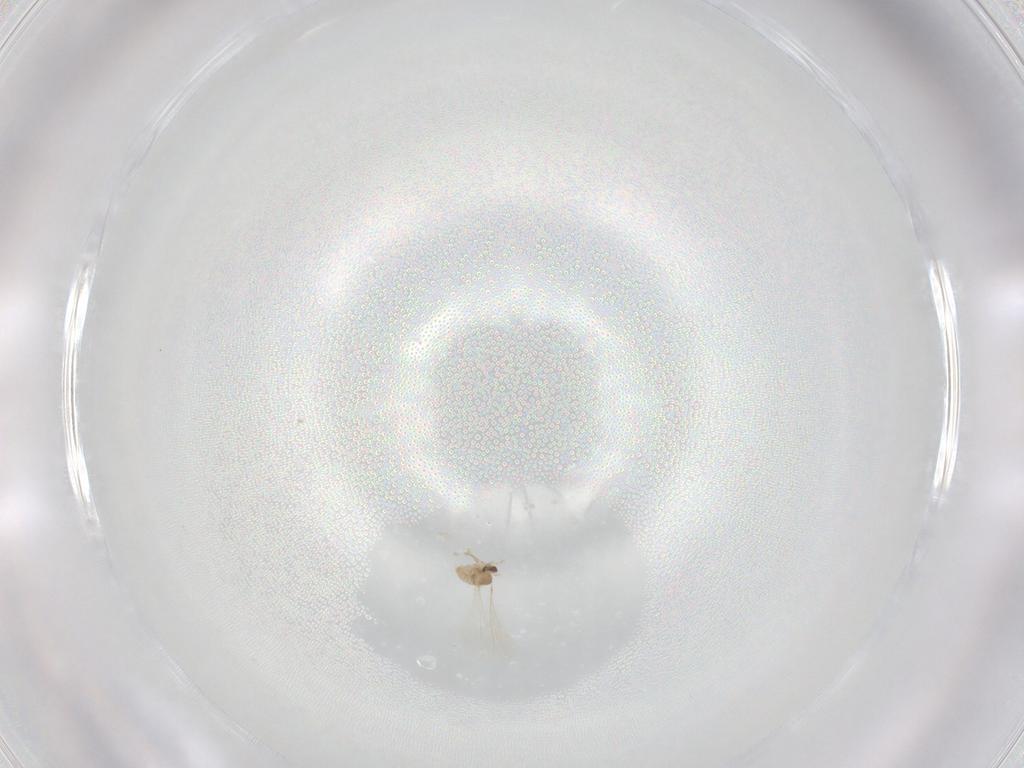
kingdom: Animalia
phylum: Arthropoda
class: Insecta
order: Diptera
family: Cecidomyiidae
